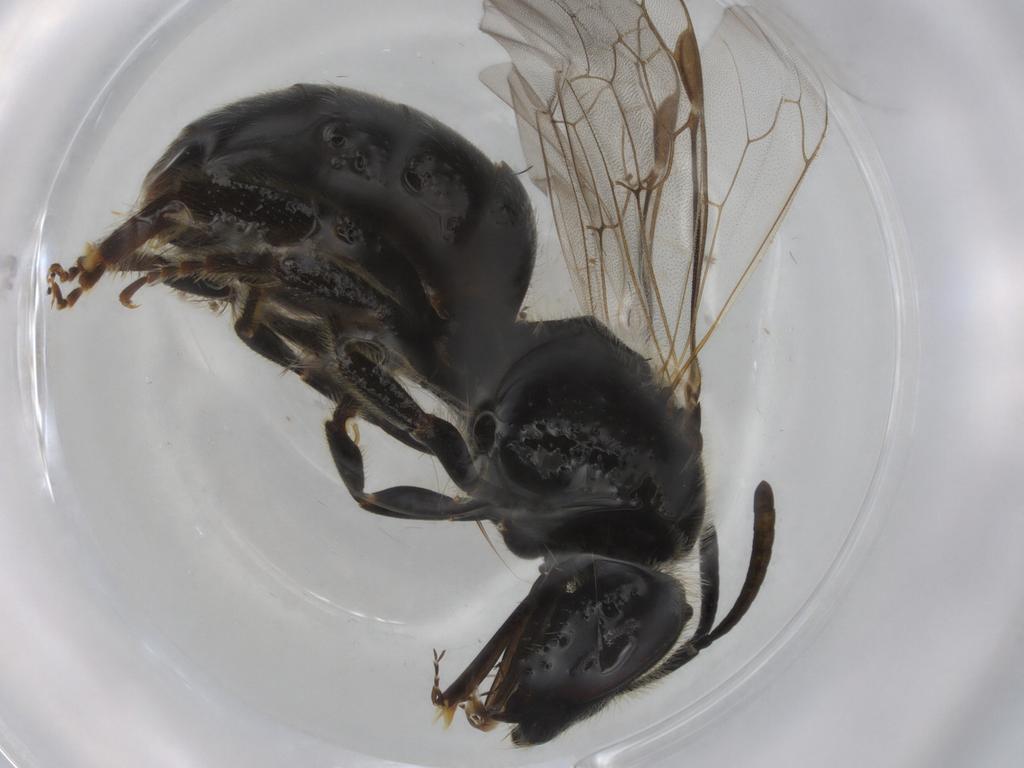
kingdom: Animalia
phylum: Arthropoda
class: Insecta
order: Hymenoptera
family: Halictidae
